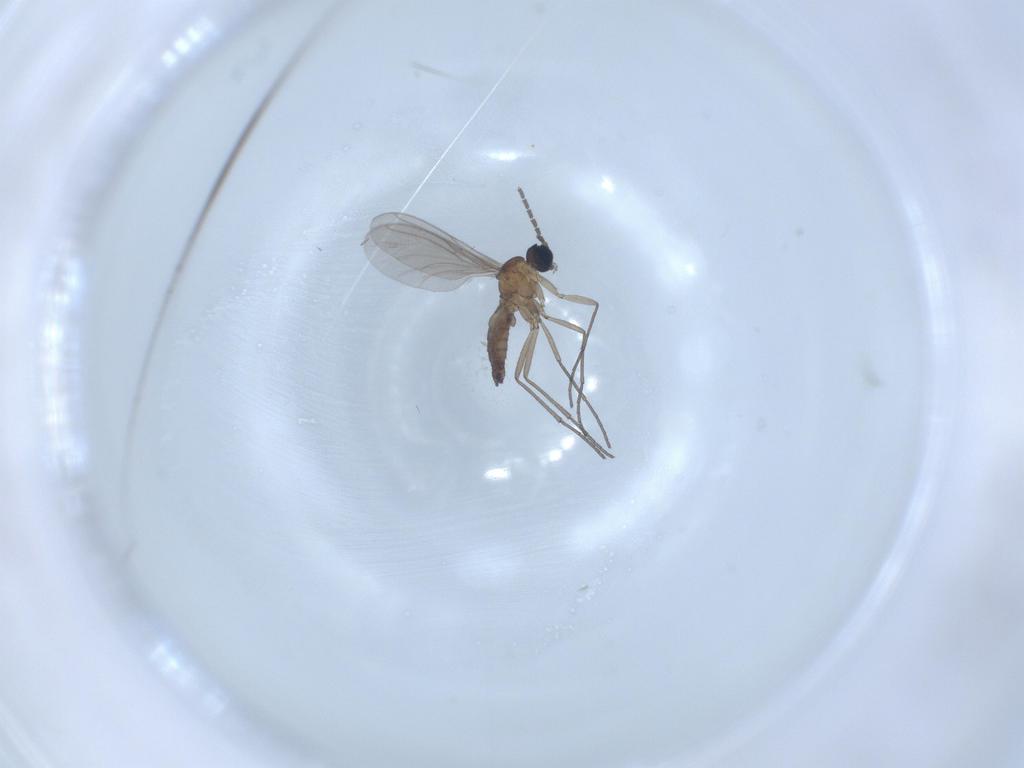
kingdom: Animalia
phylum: Arthropoda
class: Insecta
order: Diptera
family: Sciaridae
